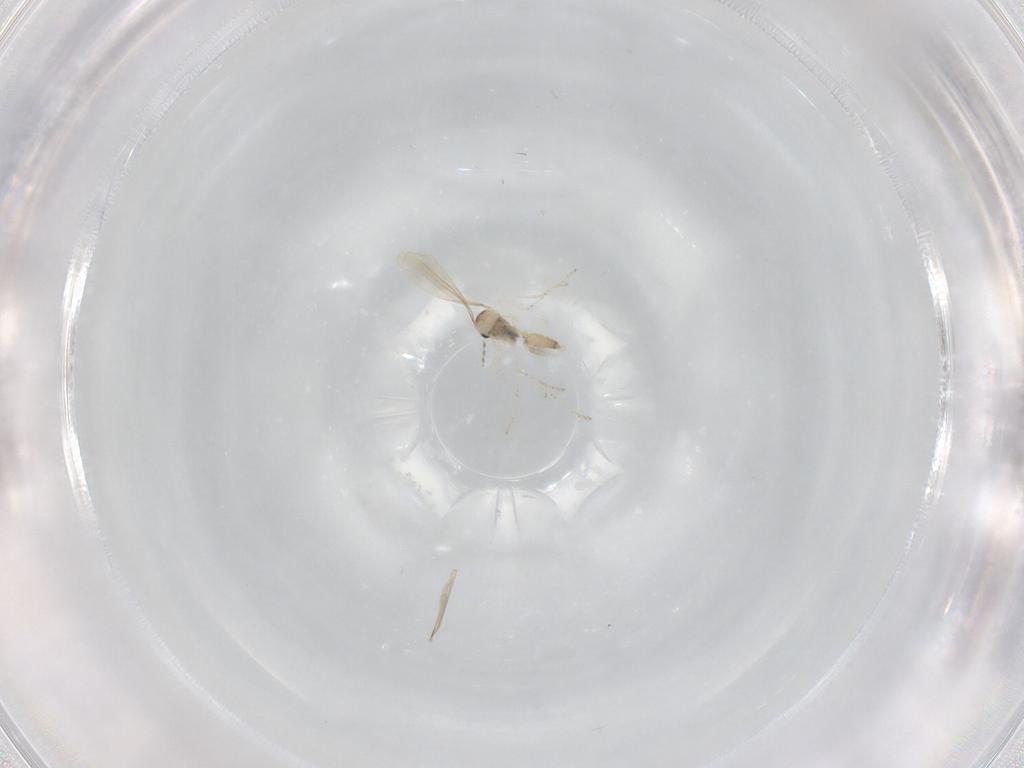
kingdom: Animalia
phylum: Arthropoda
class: Insecta
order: Diptera
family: Cecidomyiidae
